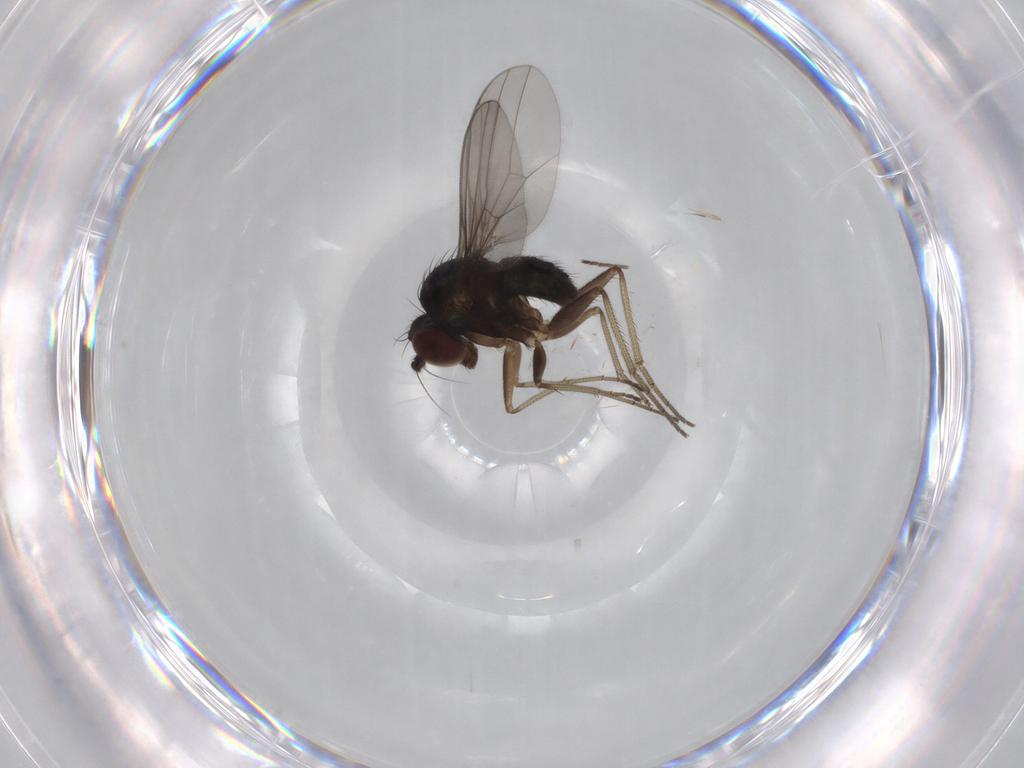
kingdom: Animalia
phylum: Arthropoda
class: Insecta
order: Diptera
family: Dolichopodidae
